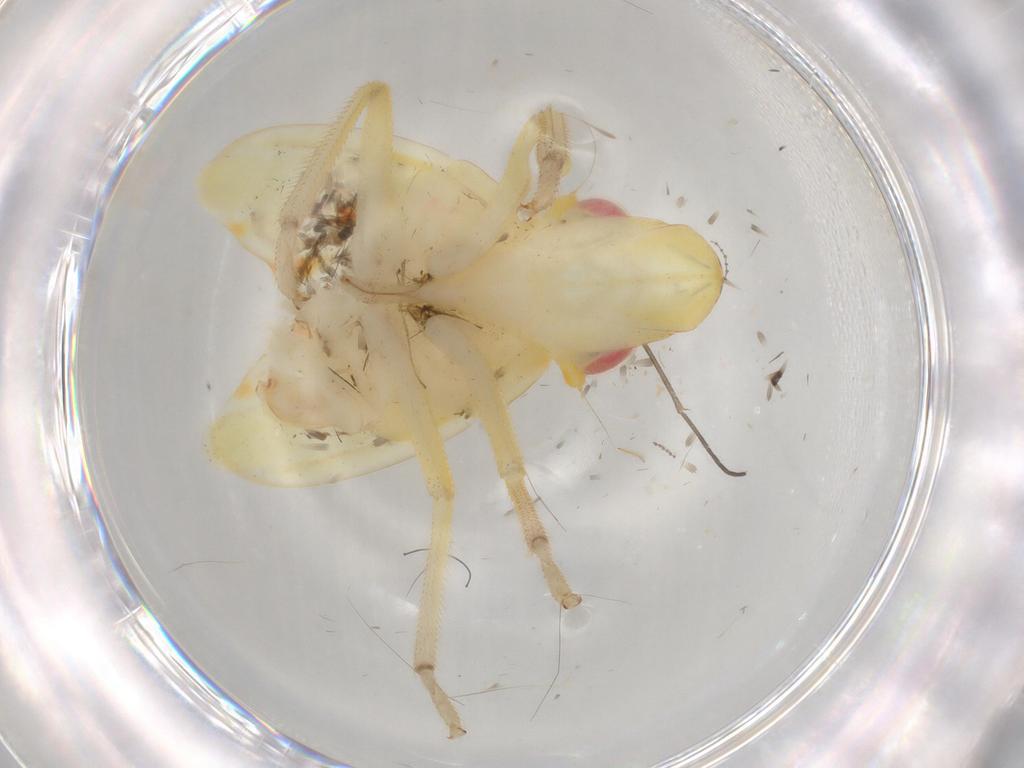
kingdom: Animalia
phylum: Arthropoda
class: Insecta
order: Hemiptera
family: Tropiduchidae
